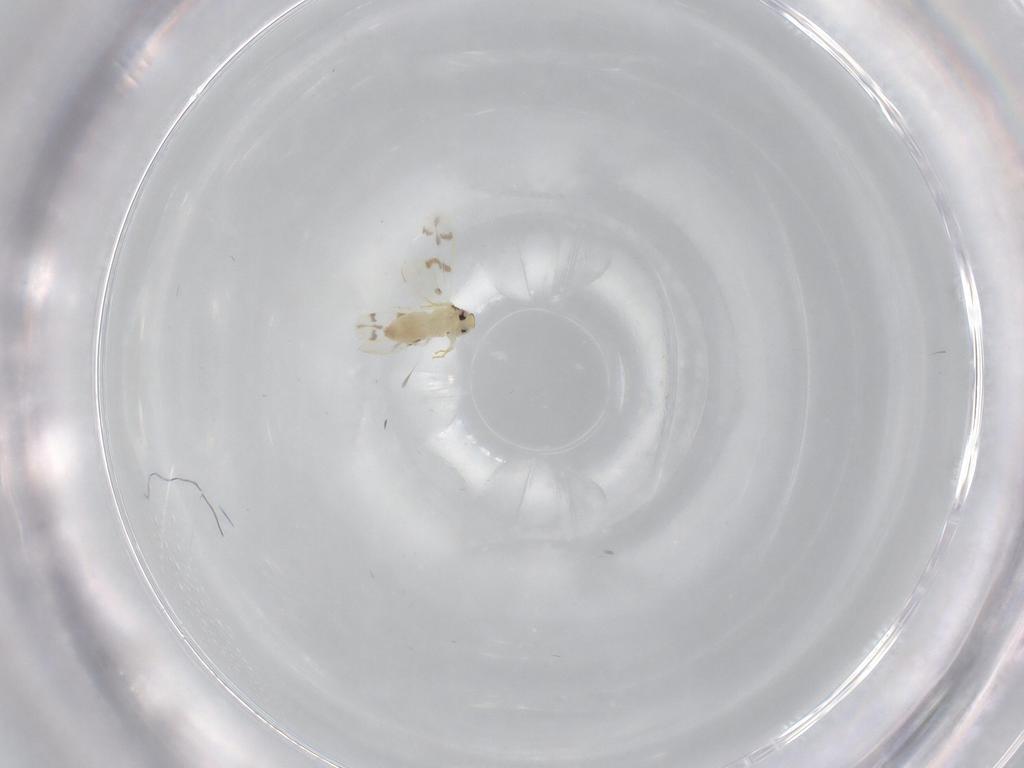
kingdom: Animalia
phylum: Arthropoda
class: Insecta
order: Hemiptera
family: Aleyrodidae
